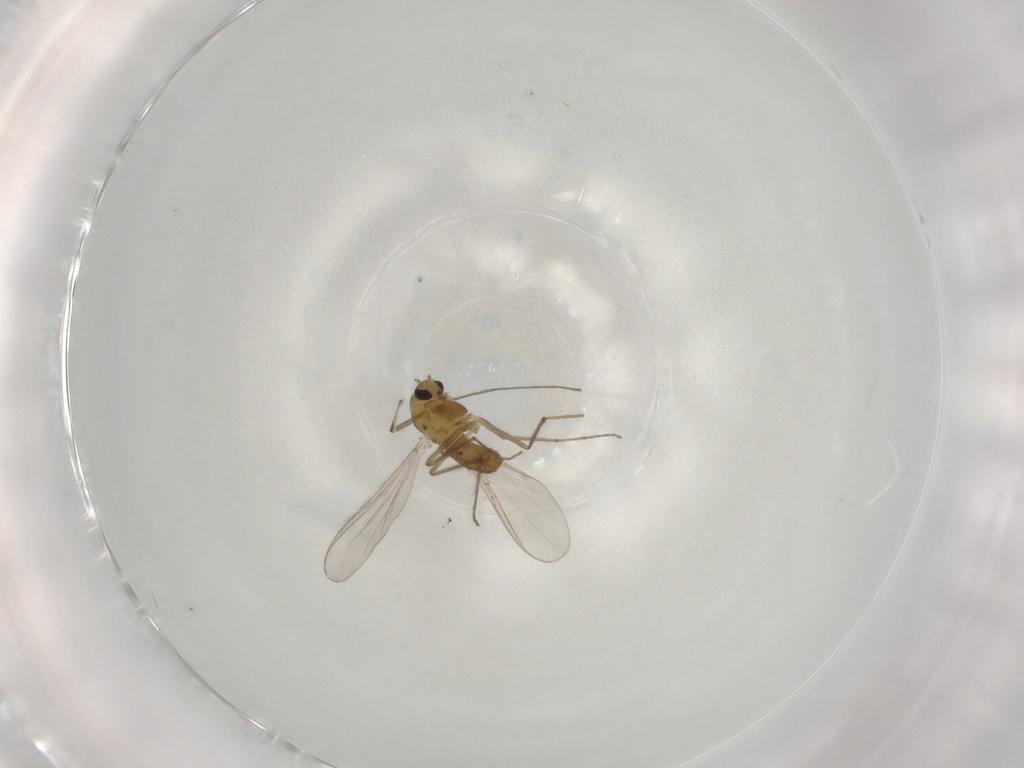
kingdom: Animalia
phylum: Arthropoda
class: Insecta
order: Diptera
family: Chironomidae
